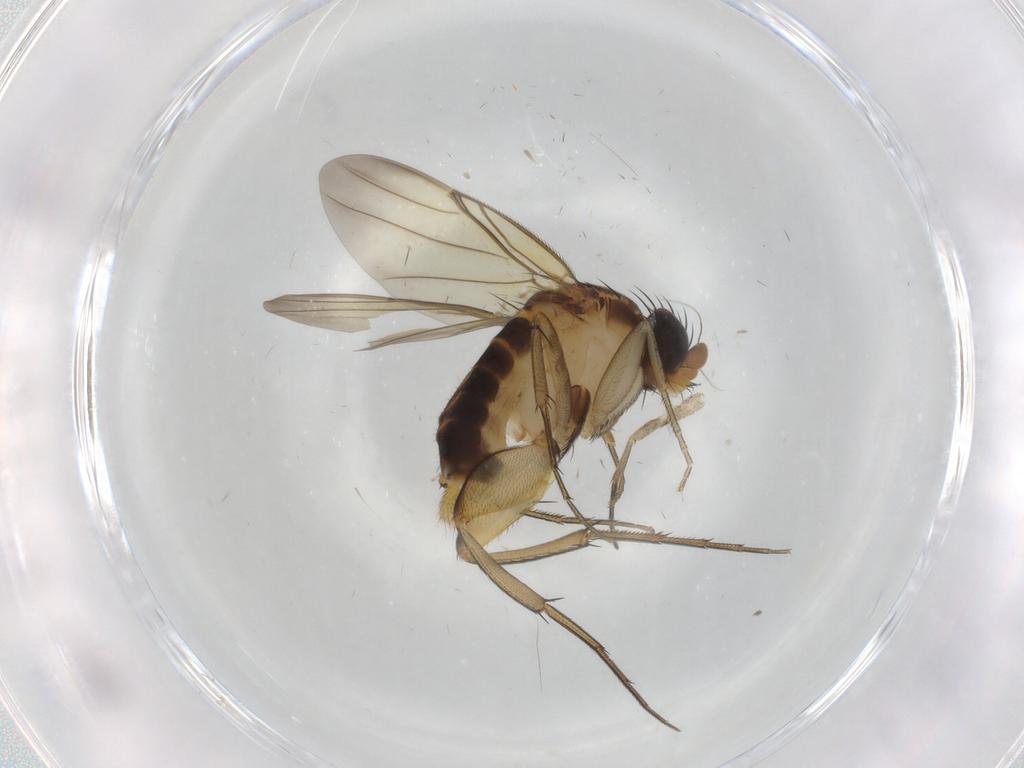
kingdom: Animalia
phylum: Arthropoda
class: Insecta
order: Diptera
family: Phoridae
